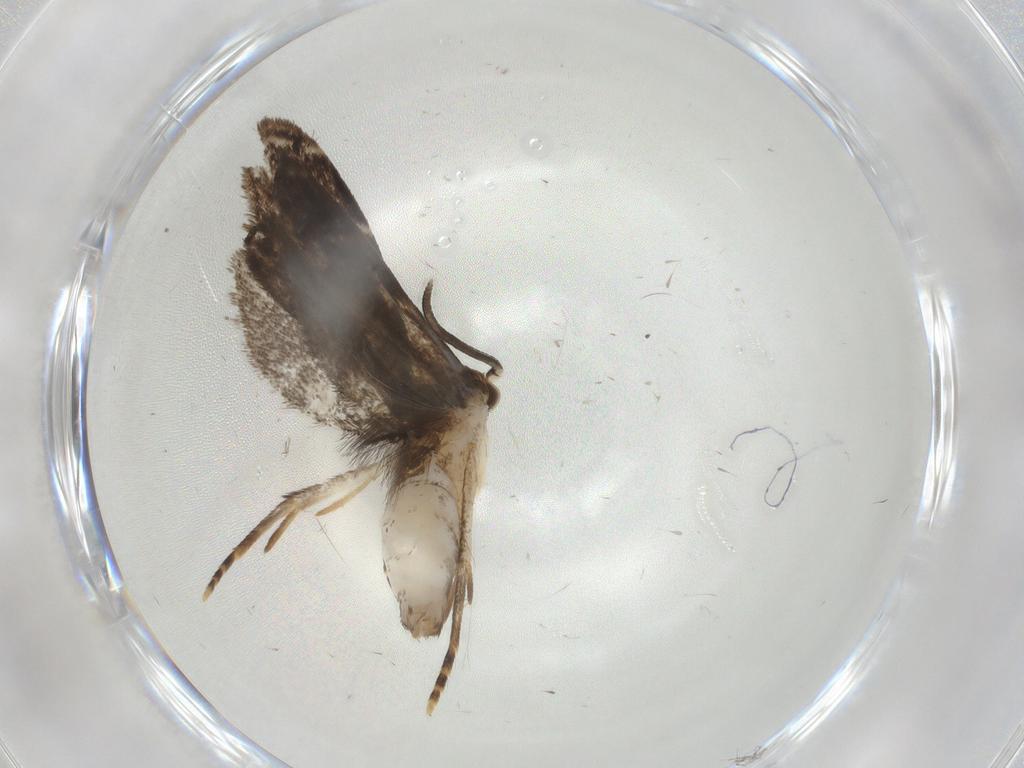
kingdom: Animalia
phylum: Arthropoda
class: Insecta
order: Lepidoptera
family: Dryadaulidae
